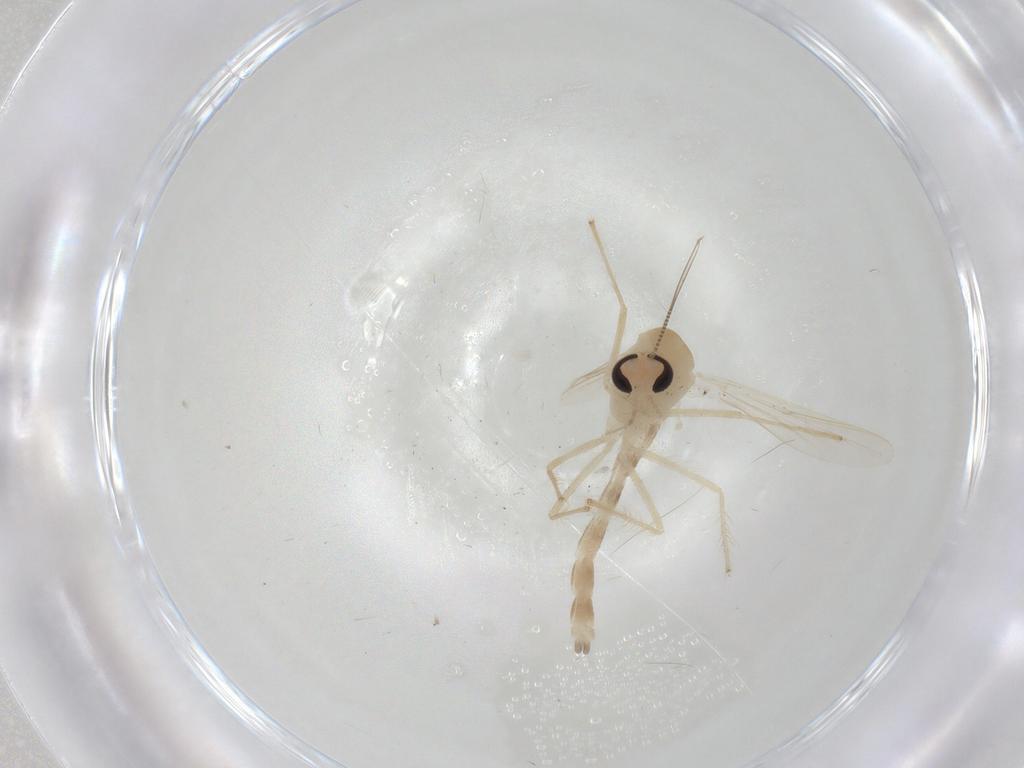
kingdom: Animalia
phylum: Arthropoda
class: Insecta
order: Diptera
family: Chironomidae
